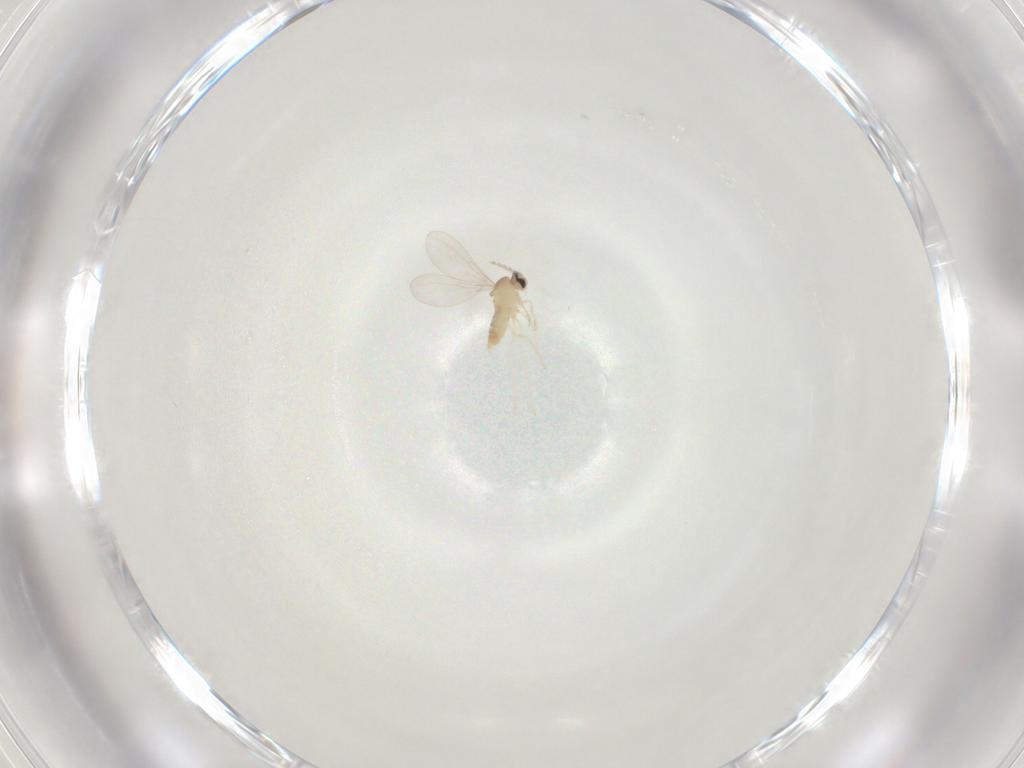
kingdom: Animalia
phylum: Arthropoda
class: Insecta
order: Diptera
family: Cecidomyiidae
